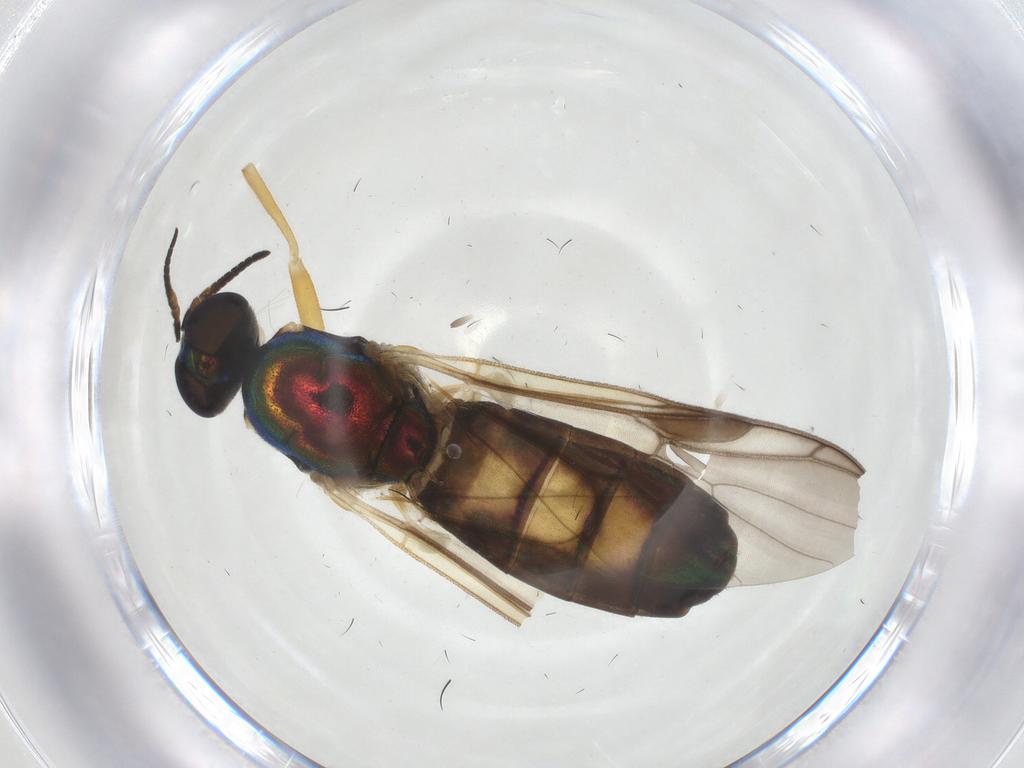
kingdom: Animalia
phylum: Arthropoda
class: Insecta
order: Diptera
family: Stratiomyidae
